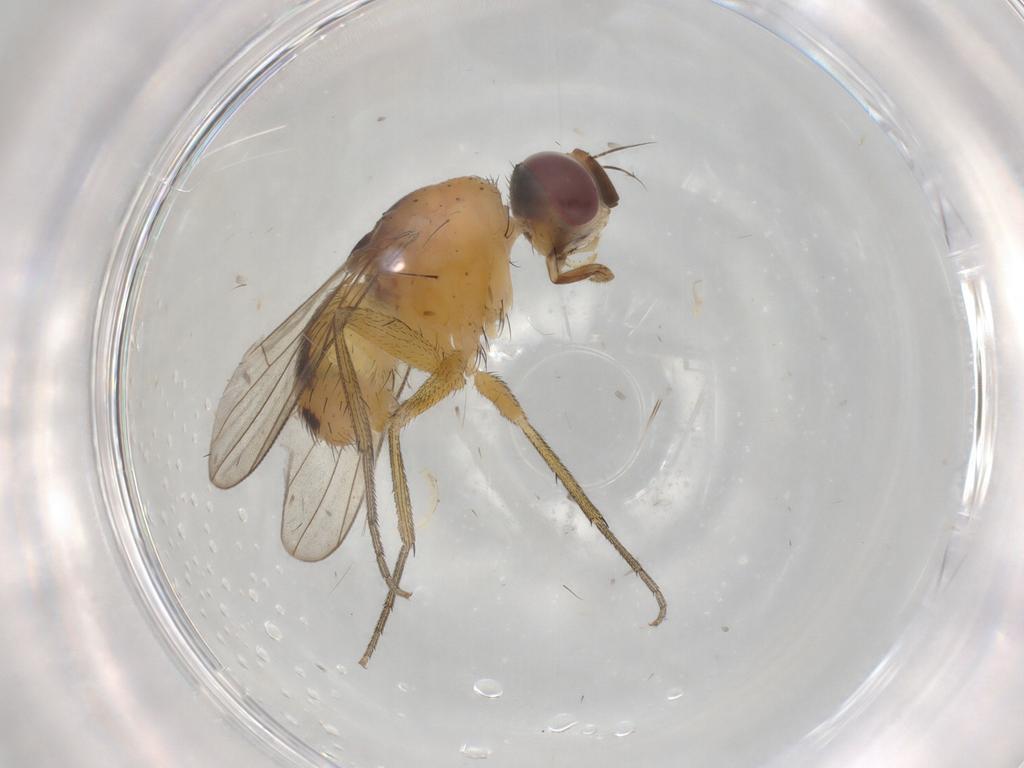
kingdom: Animalia
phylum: Arthropoda
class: Insecta
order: Diptera
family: Muscidae
